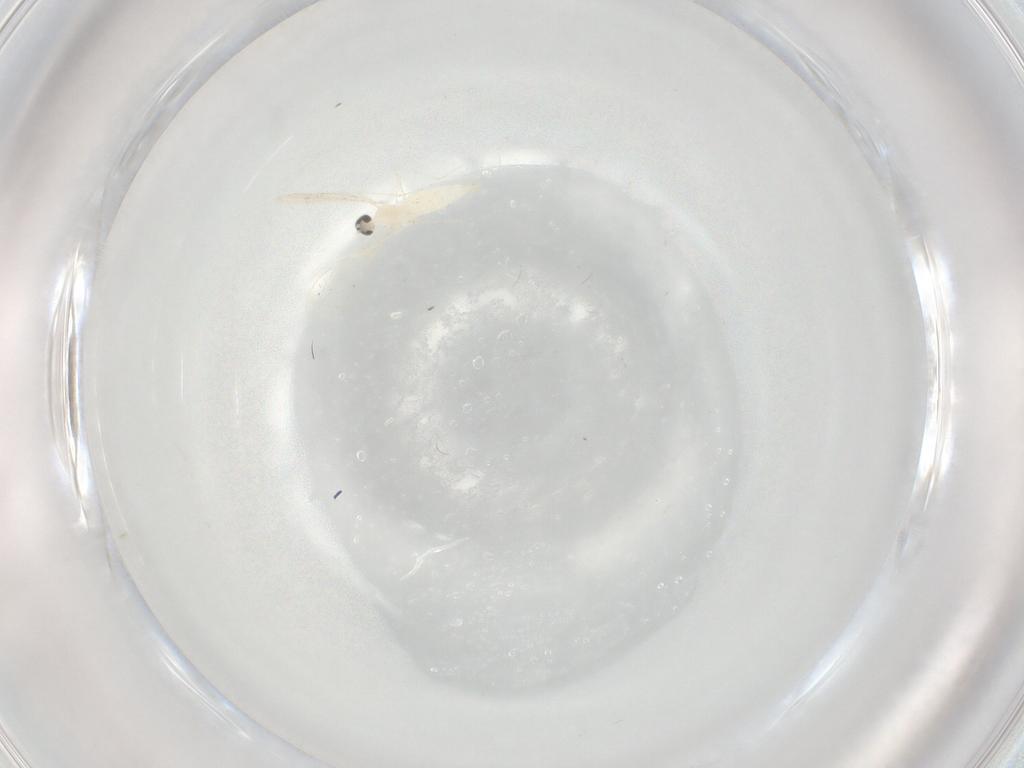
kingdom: Animalia
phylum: Arthropoda
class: Insecta
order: Diptera
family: Cecidomyiidae
